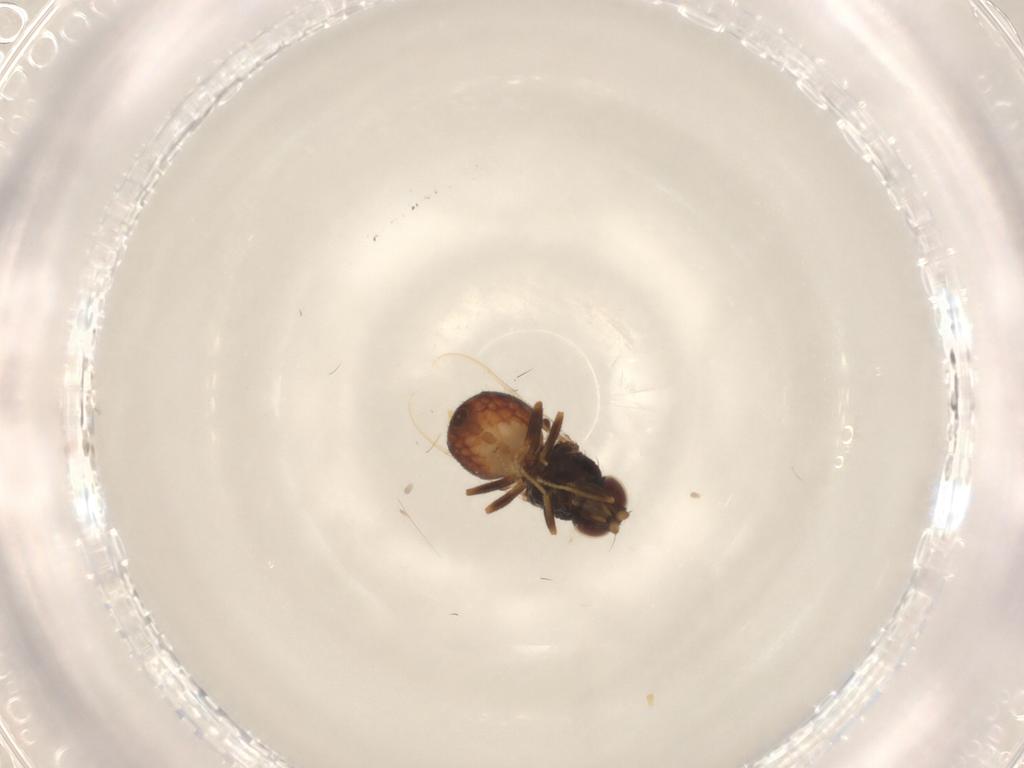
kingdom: Animalia
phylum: Arthropoda
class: Insecta
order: Diptera
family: Chloropidae
